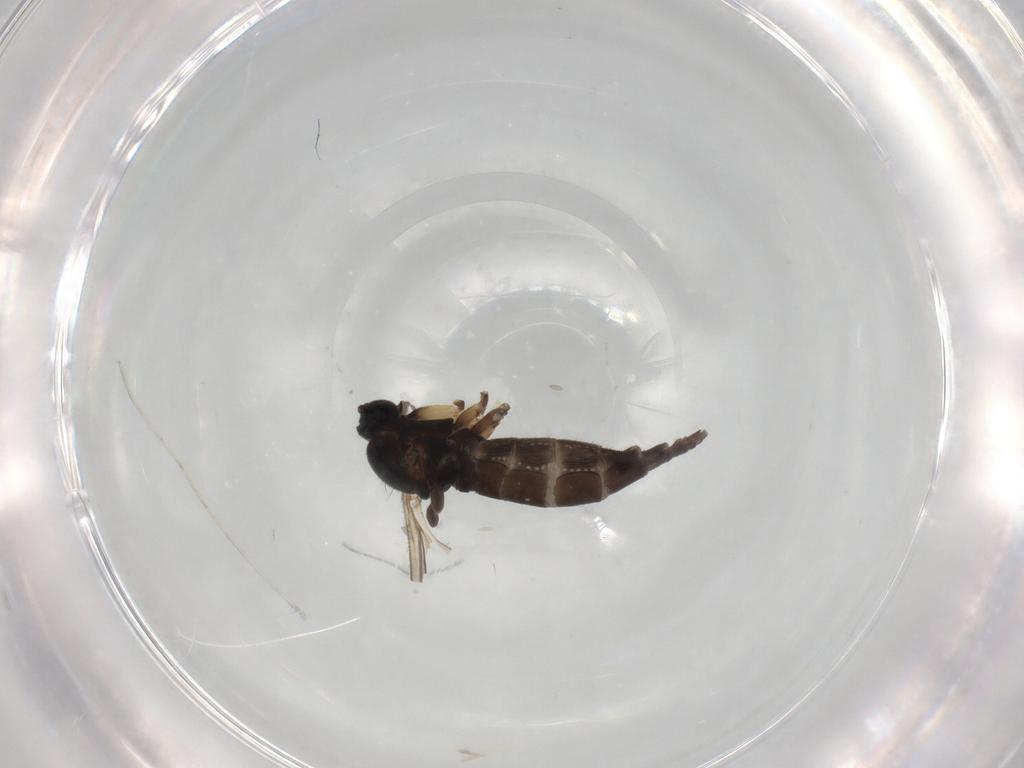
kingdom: Animalia
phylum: Arthropoda
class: Insecta
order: Diptera
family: Sciaridae
